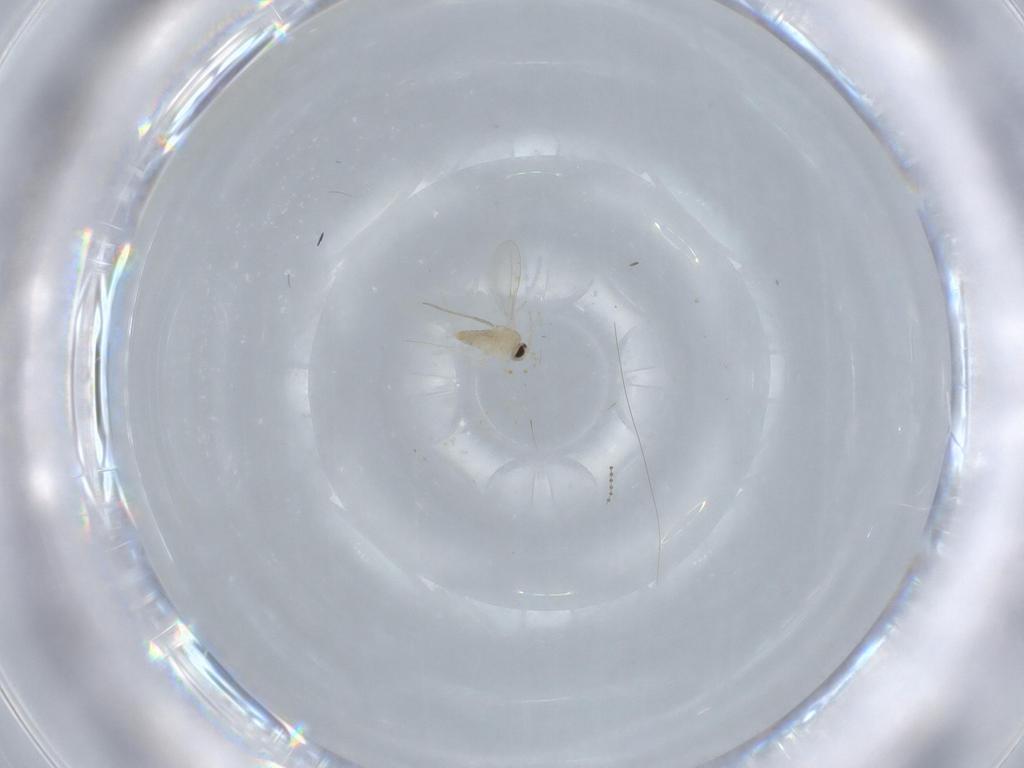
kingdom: Animalia
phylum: Arthropoda
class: Insecta
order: Diptera
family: Cecidomyiidae
